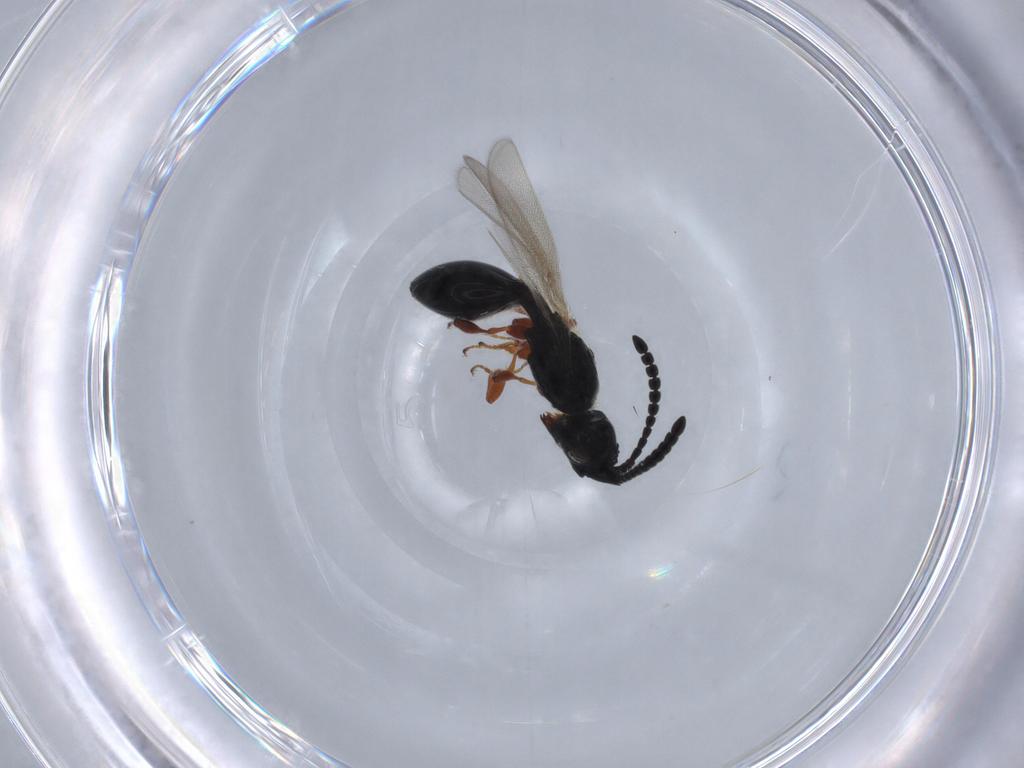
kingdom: Animalia
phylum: Arthropoda
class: Insecta
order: Hymenoptera
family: Diapriidae
